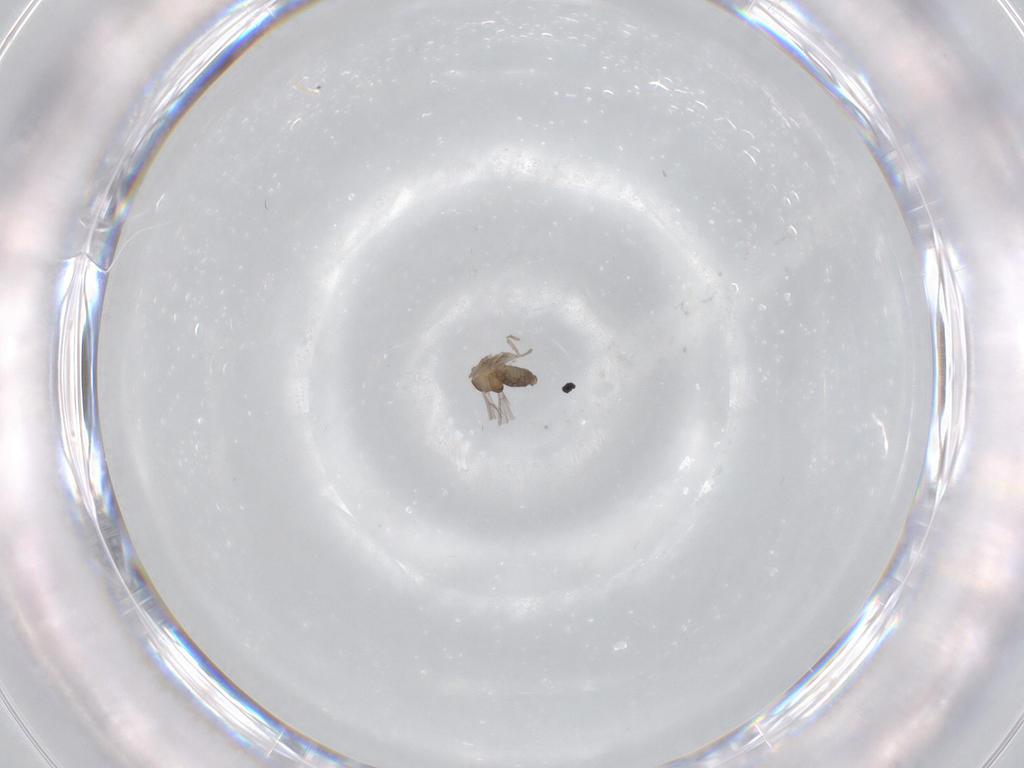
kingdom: Animalia
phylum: Arthropoda
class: Insecta
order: Diptera
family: Cecidomyiidae
